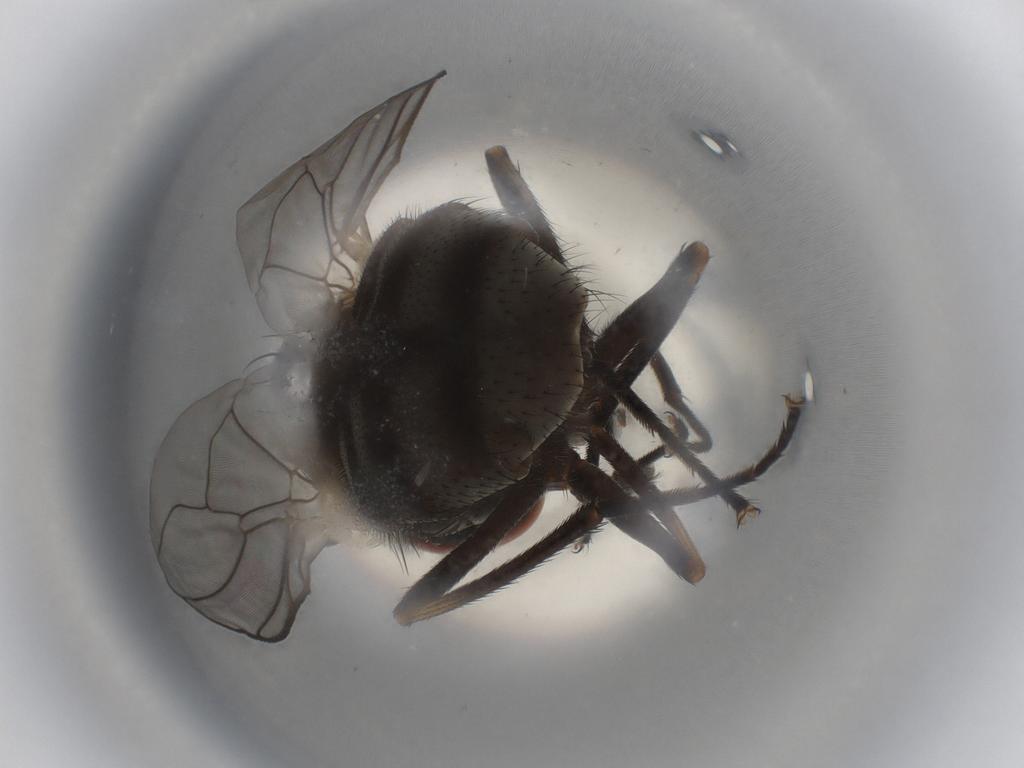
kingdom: Animalia
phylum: Arthropoda
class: Insecta
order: Diptera
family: Muscidae
